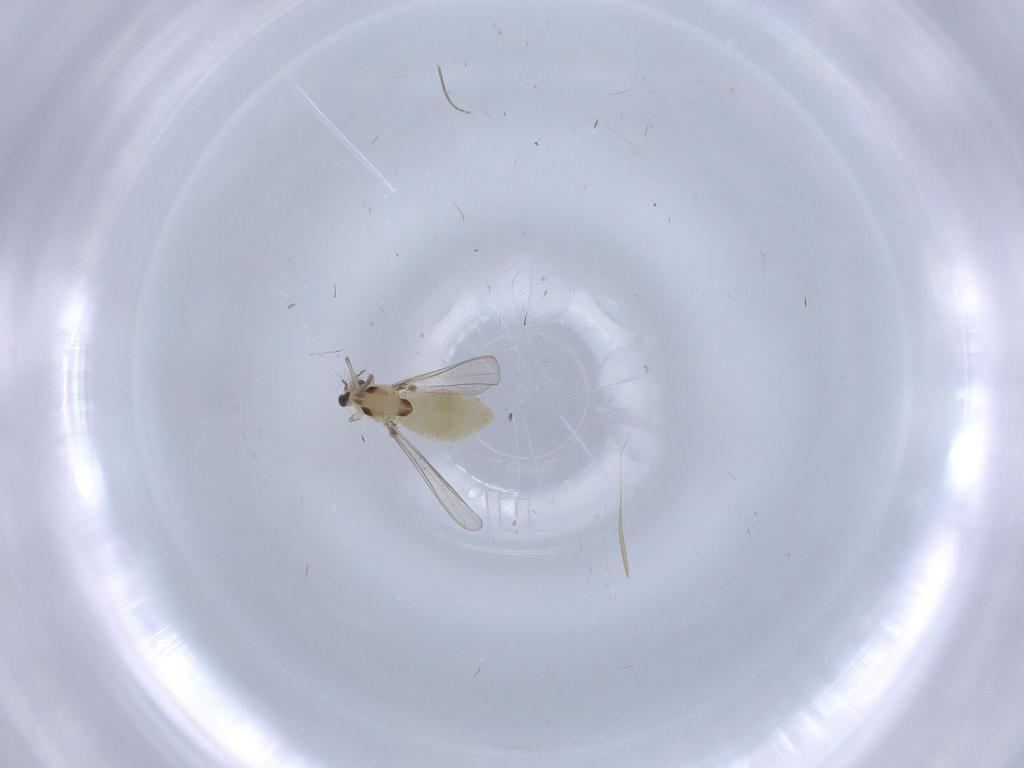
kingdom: Animalia
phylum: Arthropoda
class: Insecta
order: Diptera
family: Chironomidae
